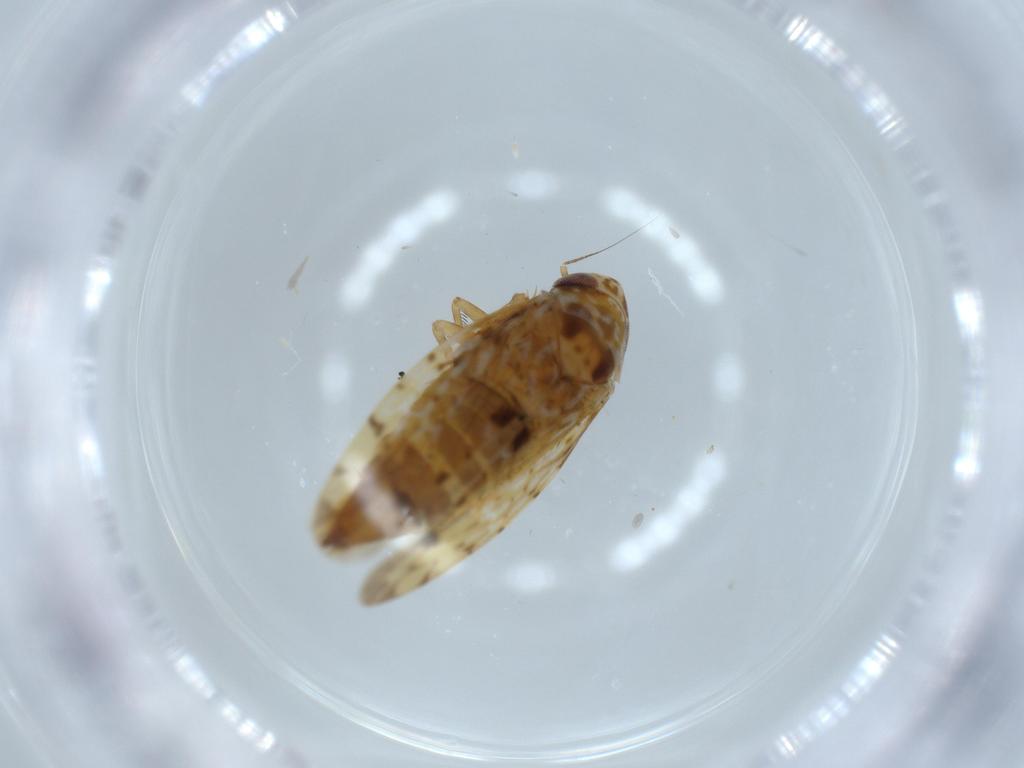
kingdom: Animalia
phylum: Arthropoda
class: Insecta
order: Hemiptera
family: Cicadellidae
